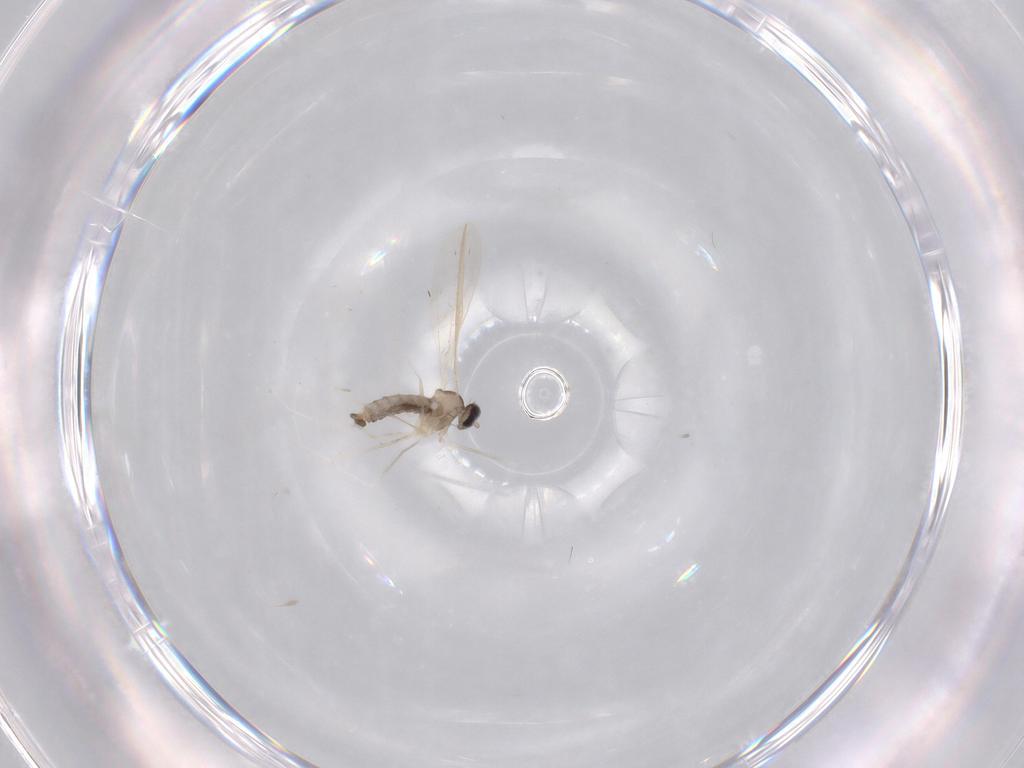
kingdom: Animalia
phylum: Arthropoda
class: Insecta
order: Diptera
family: Cecidomyiidae
